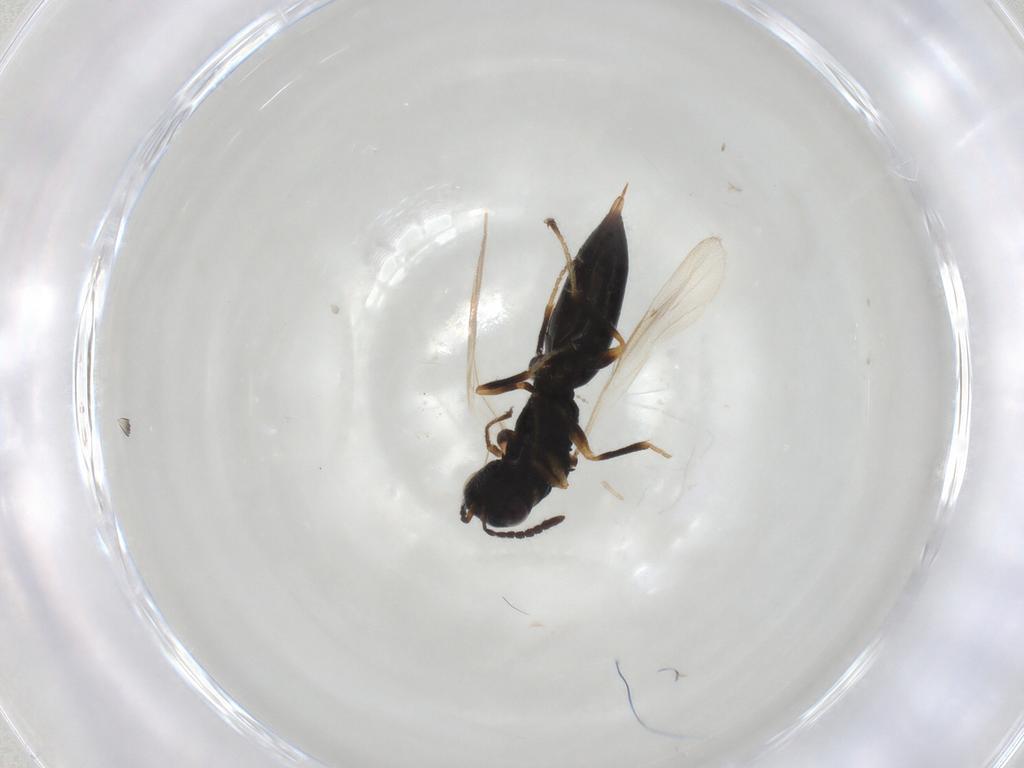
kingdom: Animalia
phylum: Arthropoda
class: Insecta
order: Hymenoptera
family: Eurytomidae
